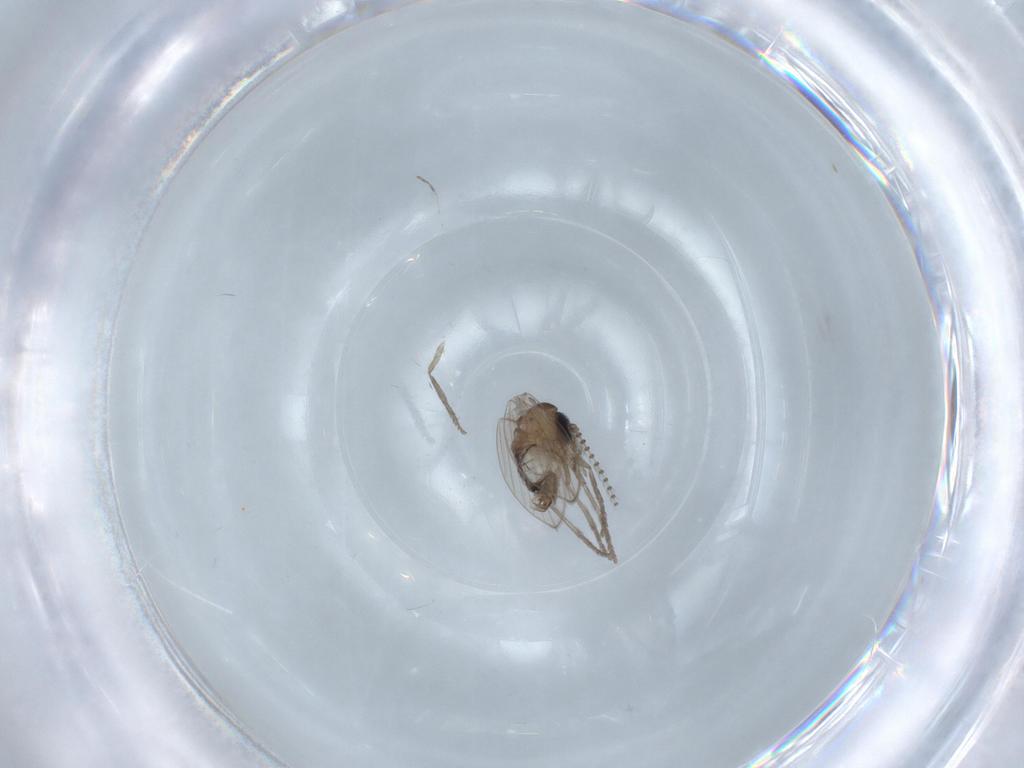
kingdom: Animalia
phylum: Arthropoda
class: Insecta
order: Diptera
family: Psychodidae
